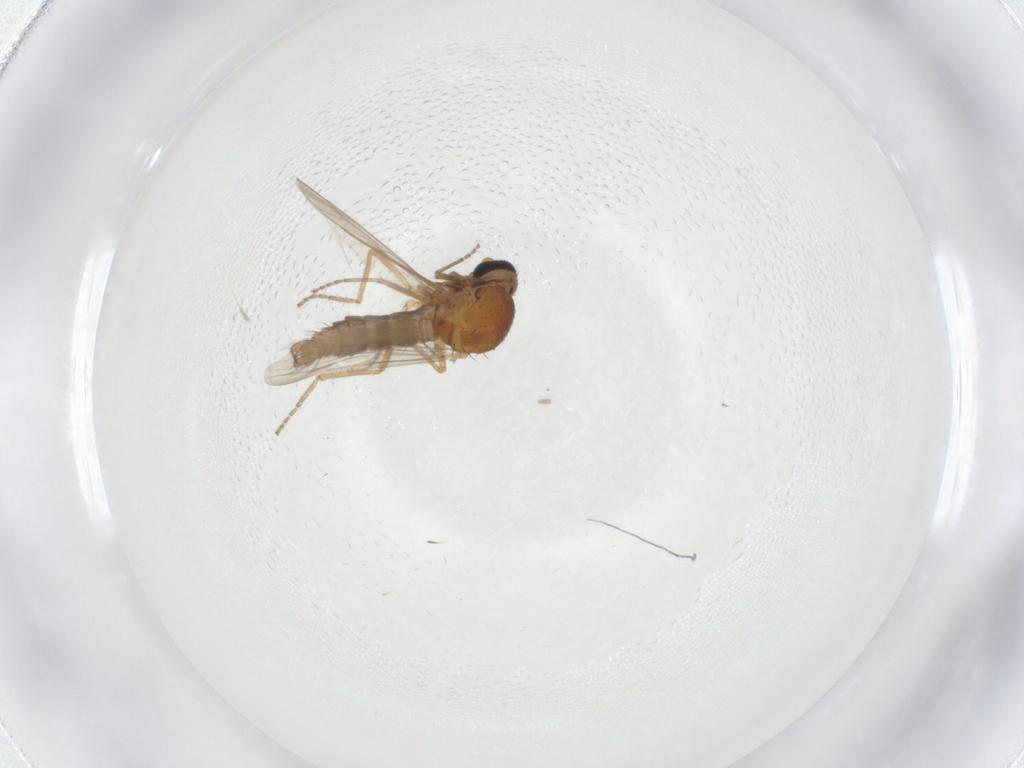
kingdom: Animalia
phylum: Arthropoda
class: Insecta
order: Diptera
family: Ceratopogonidae
